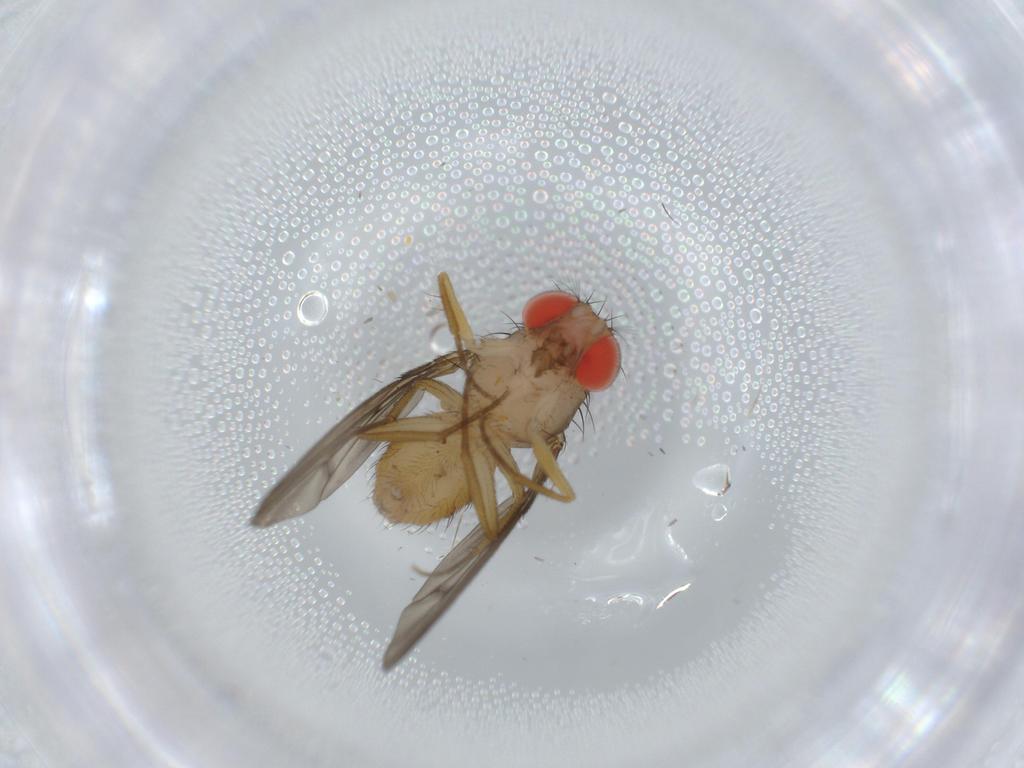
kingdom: Animalia
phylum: Arthropoda
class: Insecta
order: Diptera
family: Drosophilidae
